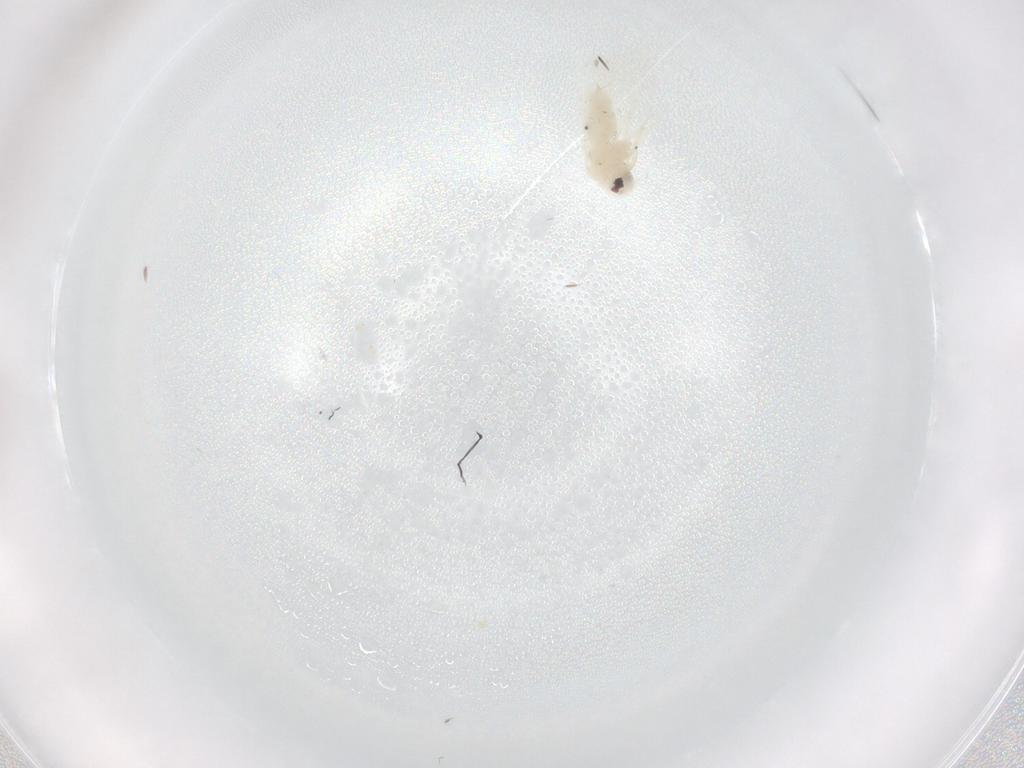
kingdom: Animalia
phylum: Arthropoda
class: Insecta
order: Hemiptera
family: Aleyrodidae
